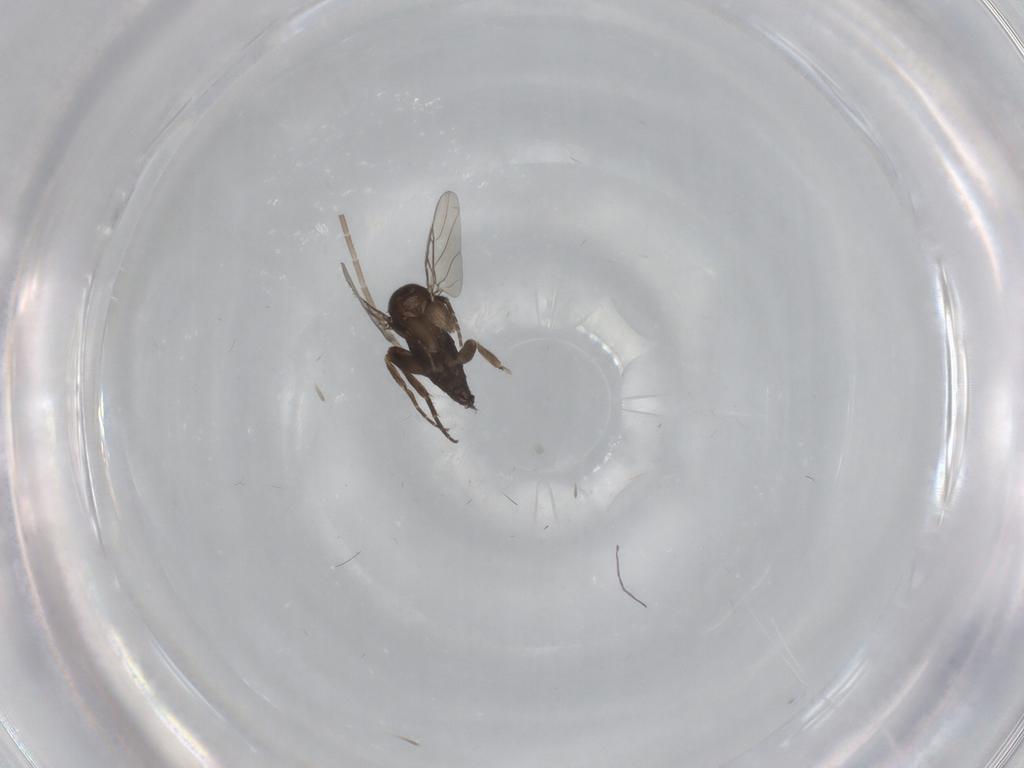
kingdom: Animalia
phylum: Arthropoda
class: Insecta
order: Diptera
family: Phoridae
